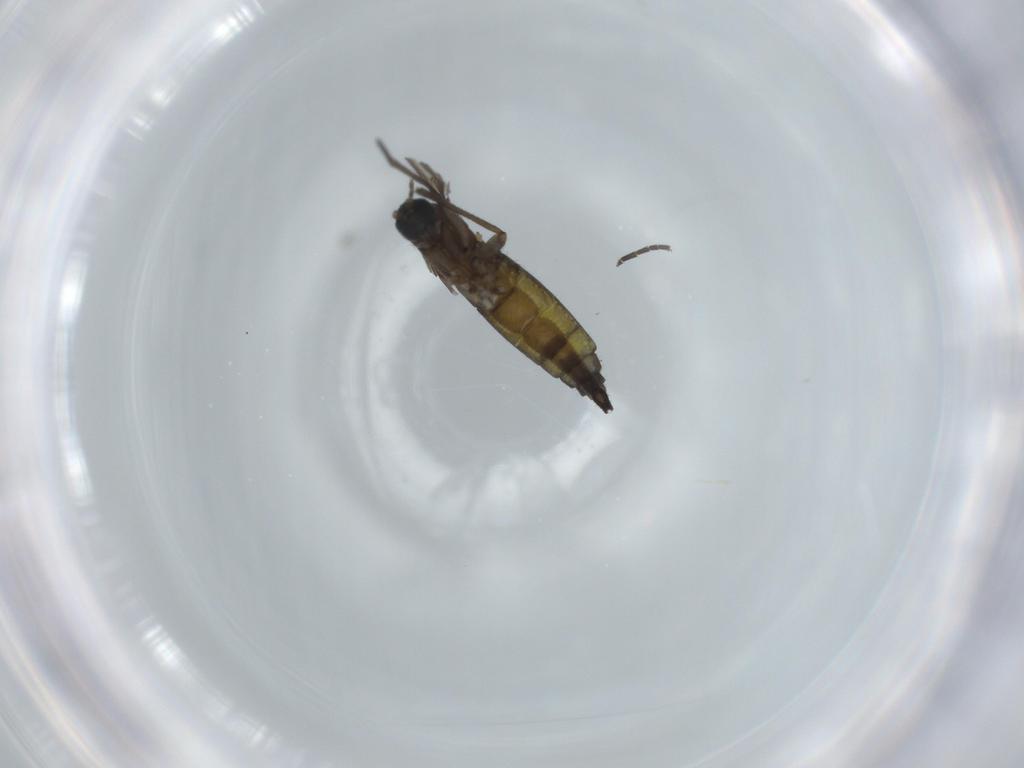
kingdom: Animalia
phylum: Arthropoda
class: Insecta
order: Diptera
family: Sciaridae
